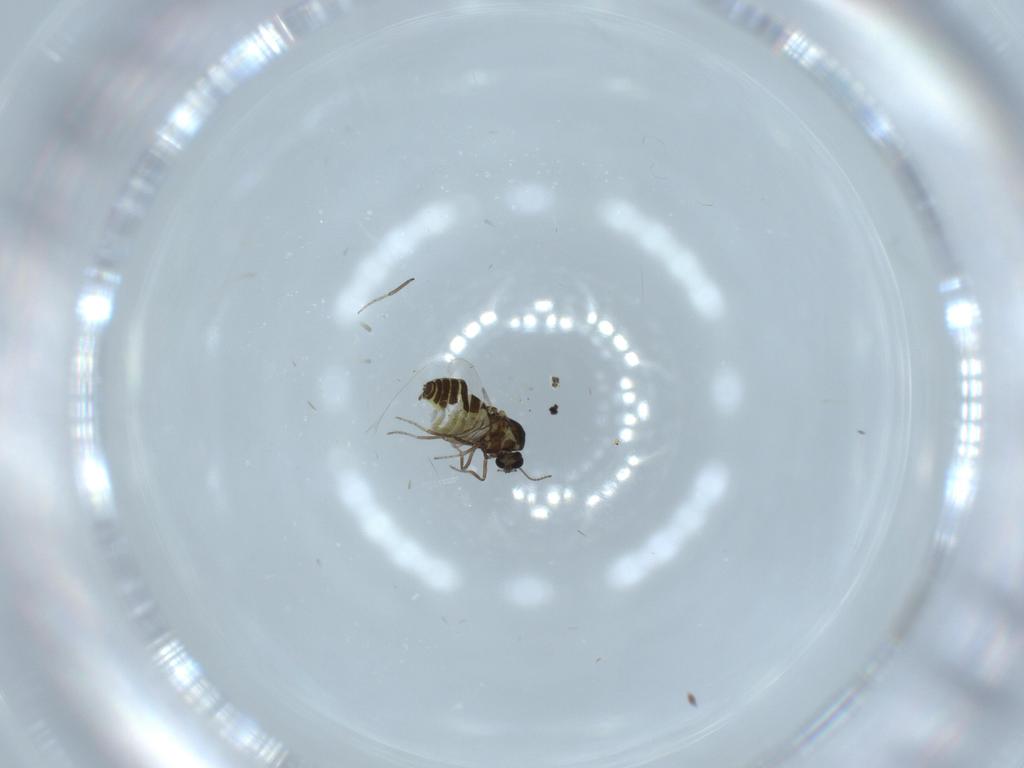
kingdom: Animalia
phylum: Arthropoda
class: Insecta
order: Diptera
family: Ceratopogonidae
